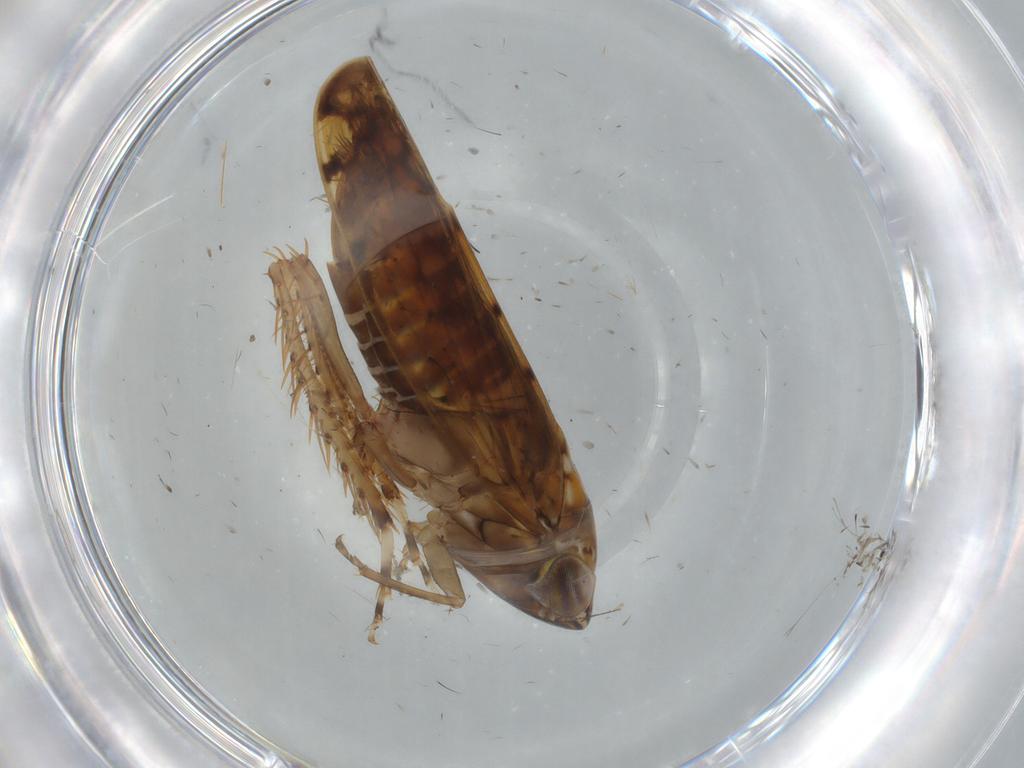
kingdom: Animalia
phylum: Arthropoda
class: Insecta
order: Hemiptera
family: Cicadellidae
